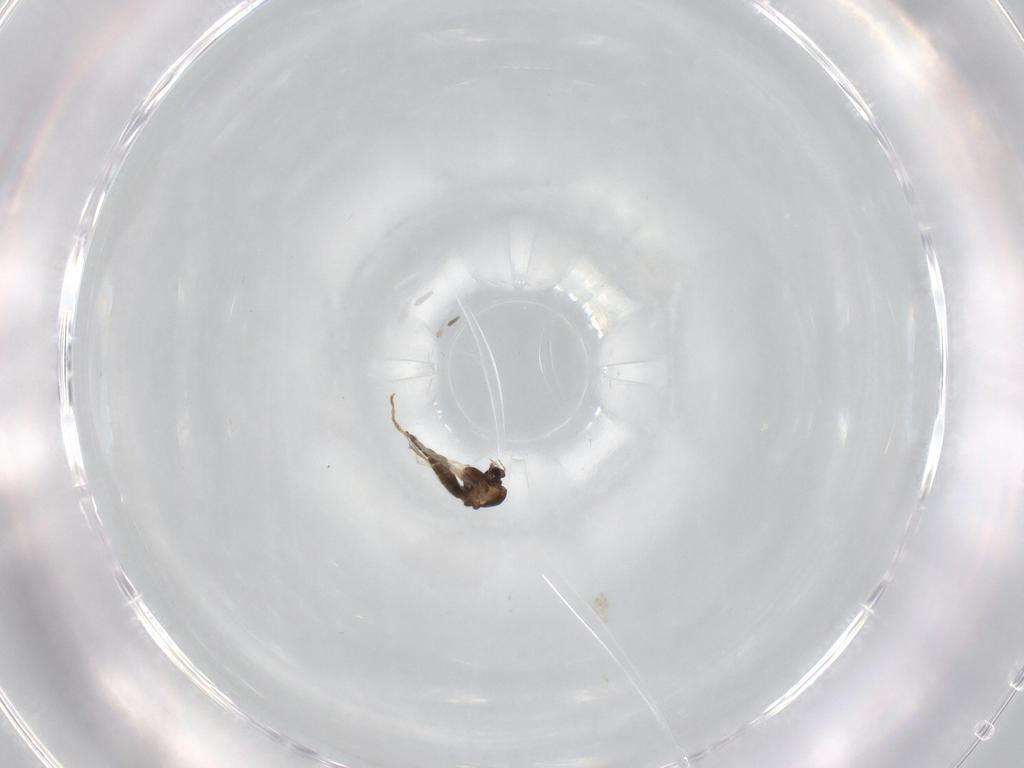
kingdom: Animalia
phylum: Arthropoda
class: Insecta
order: Diptera
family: Chironomidae
